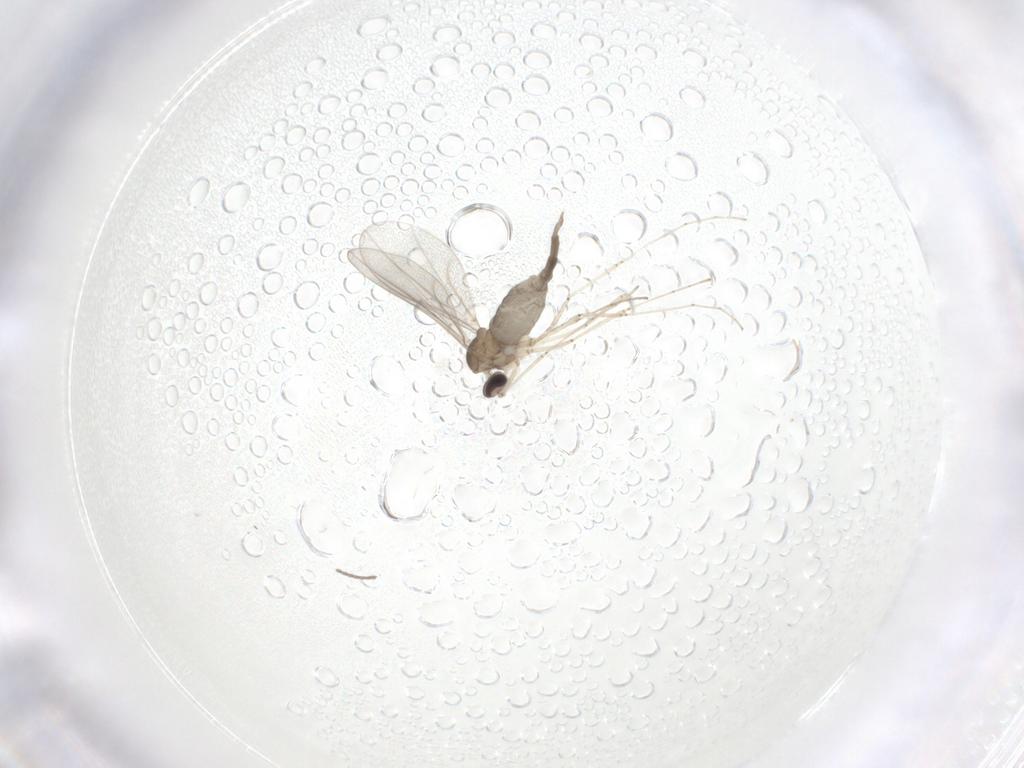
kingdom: Animalia
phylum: Arthropoda
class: Insecta
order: Diptera
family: Cecidomyiidae
